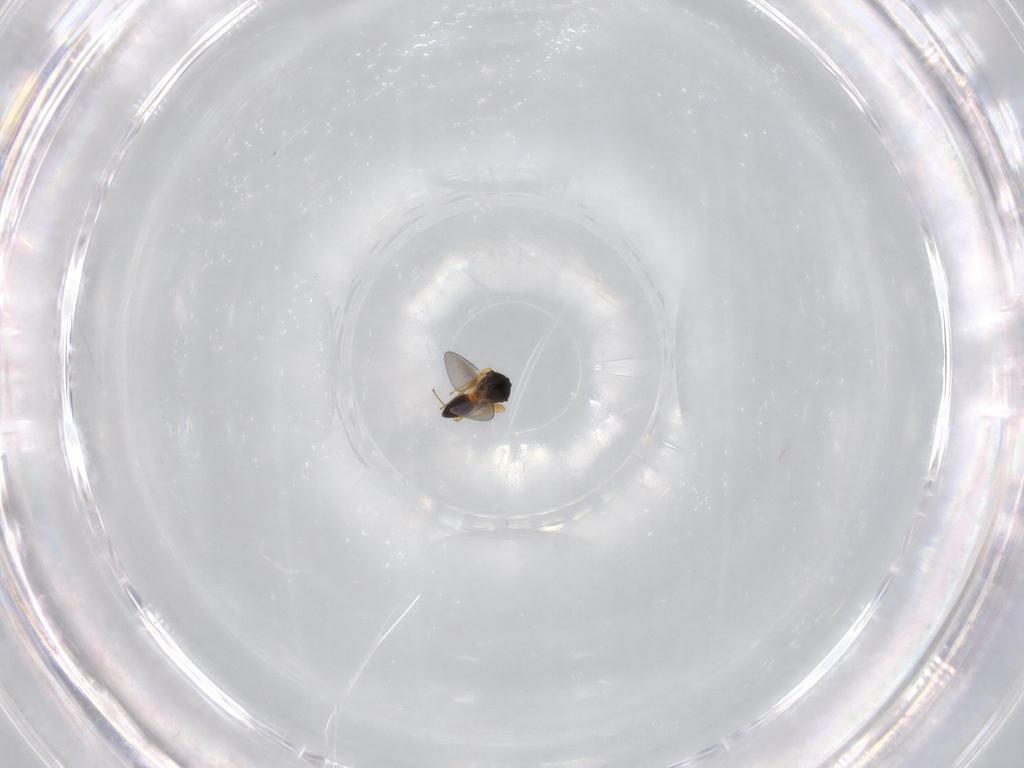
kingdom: Animalia
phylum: Arthropoda
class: Insecta
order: Hymenoptera
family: Platygastridae
